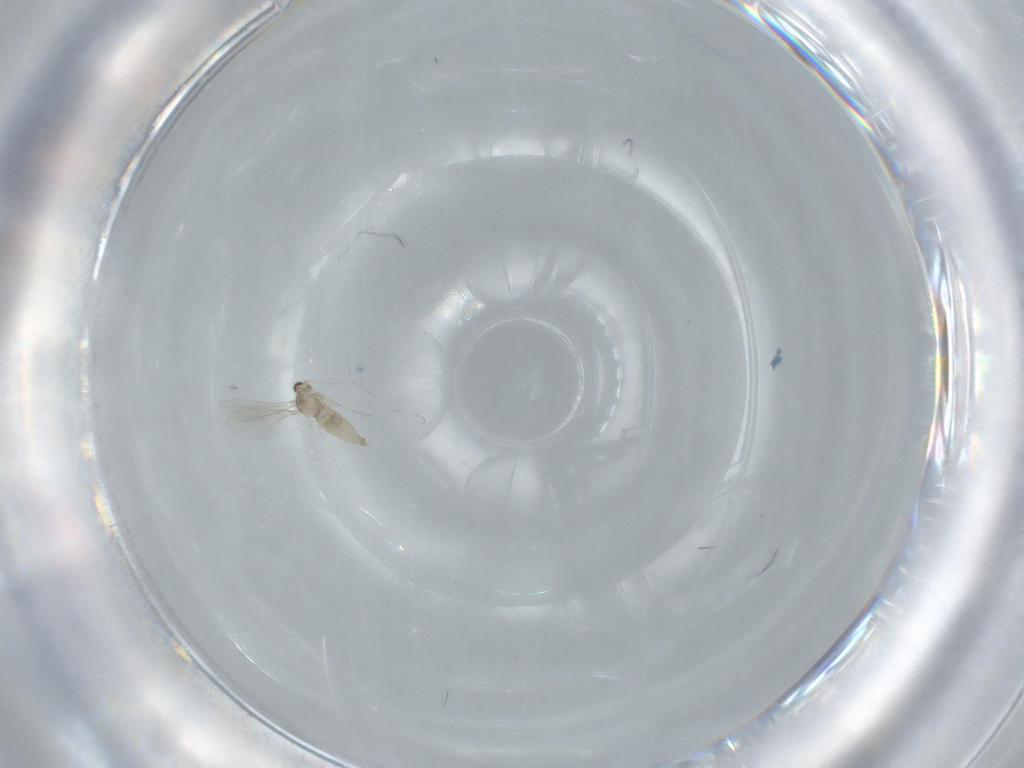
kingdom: Animalia
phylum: Arthropoda
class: Insecta
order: Diptera
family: Cecidomyiidae
